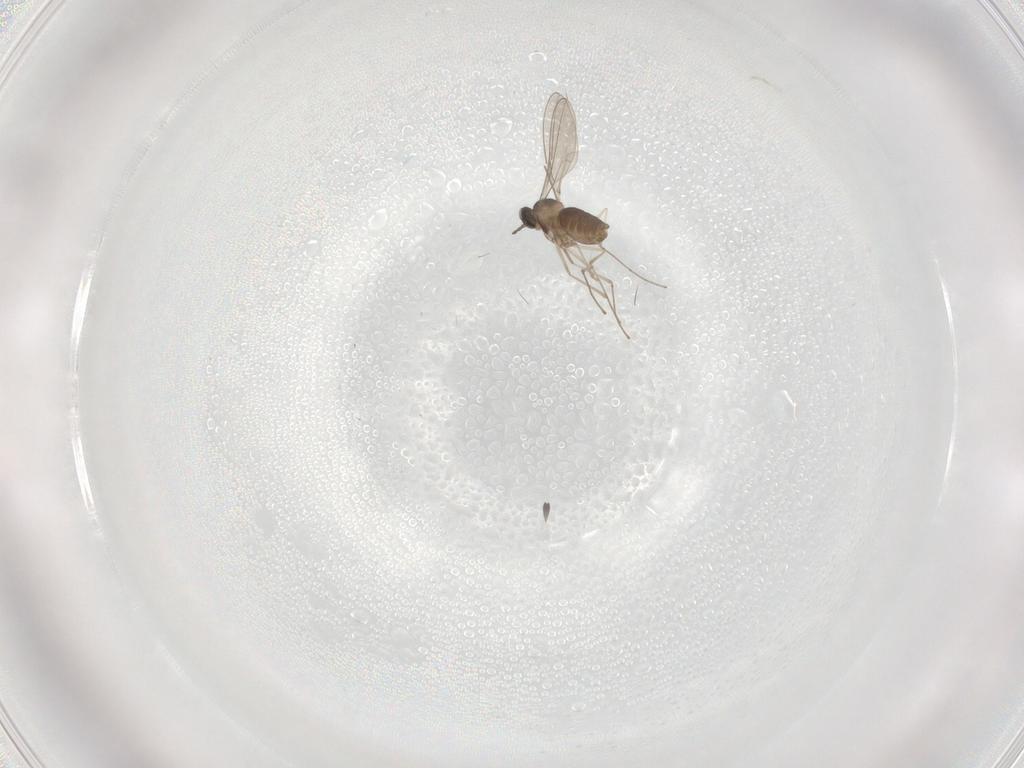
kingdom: Animalia
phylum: Arthropoda
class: Insecta
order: Diptera
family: Cecidomyiidae
